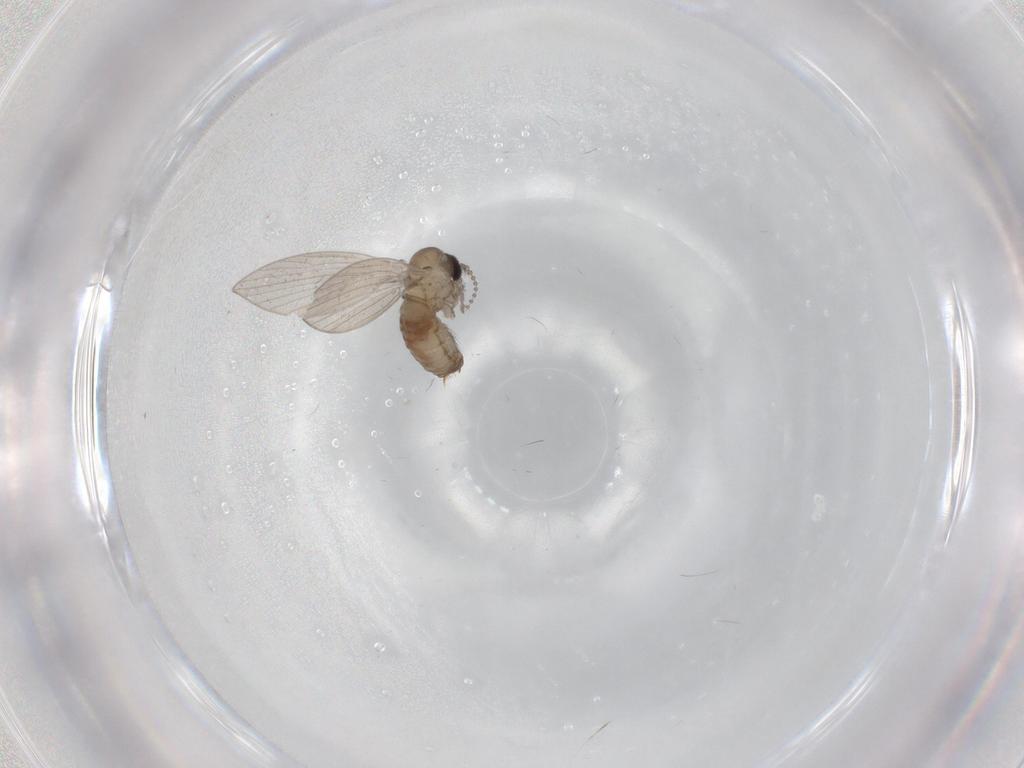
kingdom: Animalia
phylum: Arthropoda
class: Insecta
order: Diptera
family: Psychodidae
